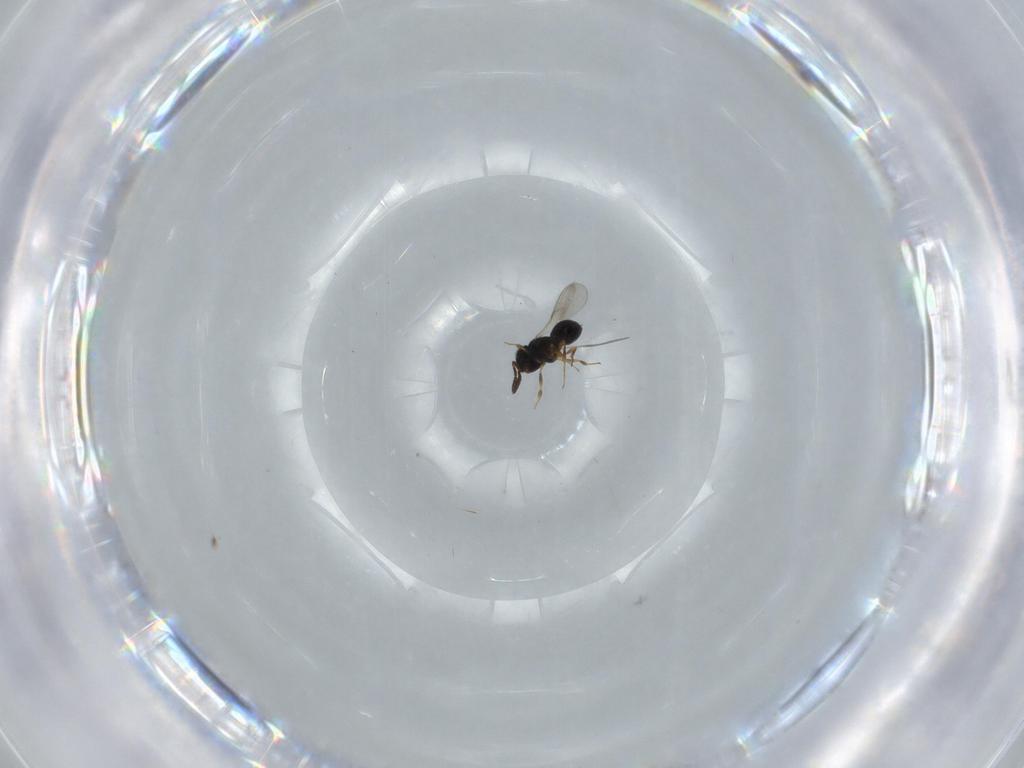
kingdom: Animalia
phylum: Arthropoda
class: Insecta
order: Hymenoptera
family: Scelionidae
